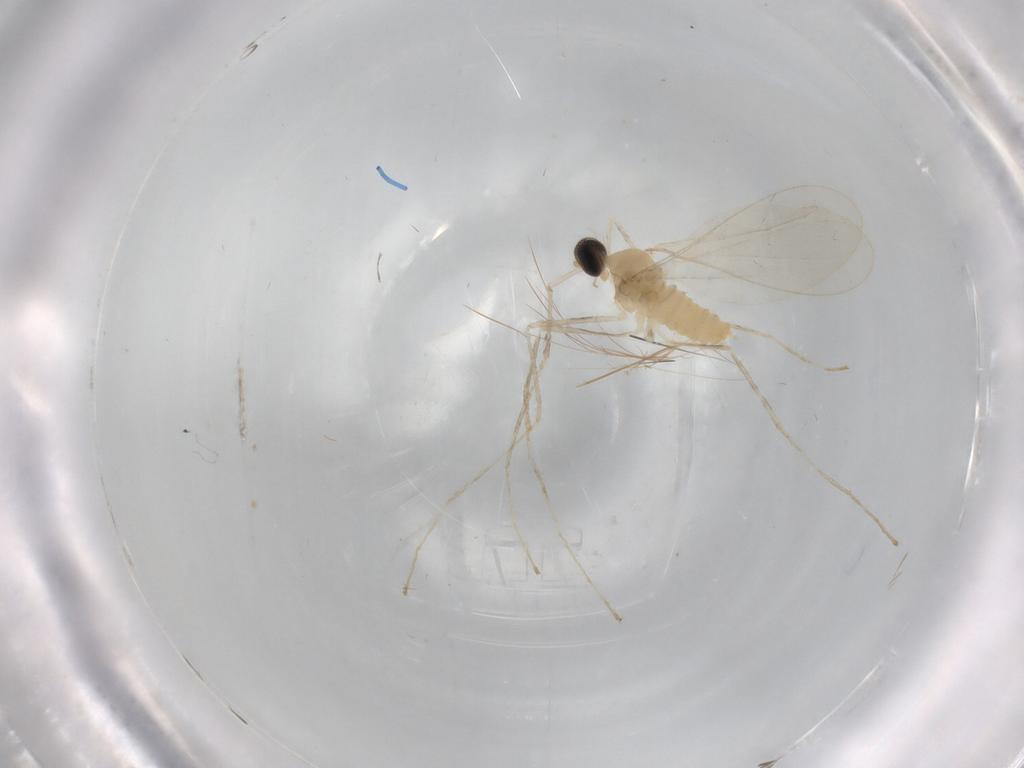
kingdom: Animalia
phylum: Arthropoda
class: Insecta
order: Diptera
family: Cecidomyiidae
